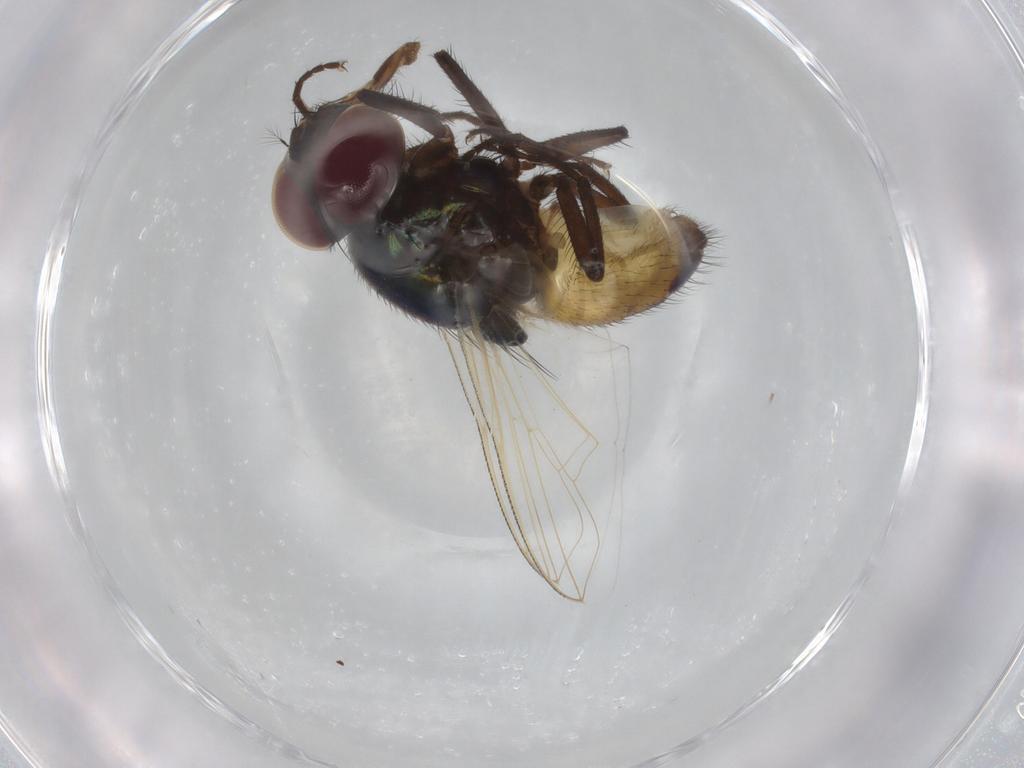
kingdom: Animalia
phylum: Arthropoda
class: Insecta
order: Diptera
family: Muscidae
